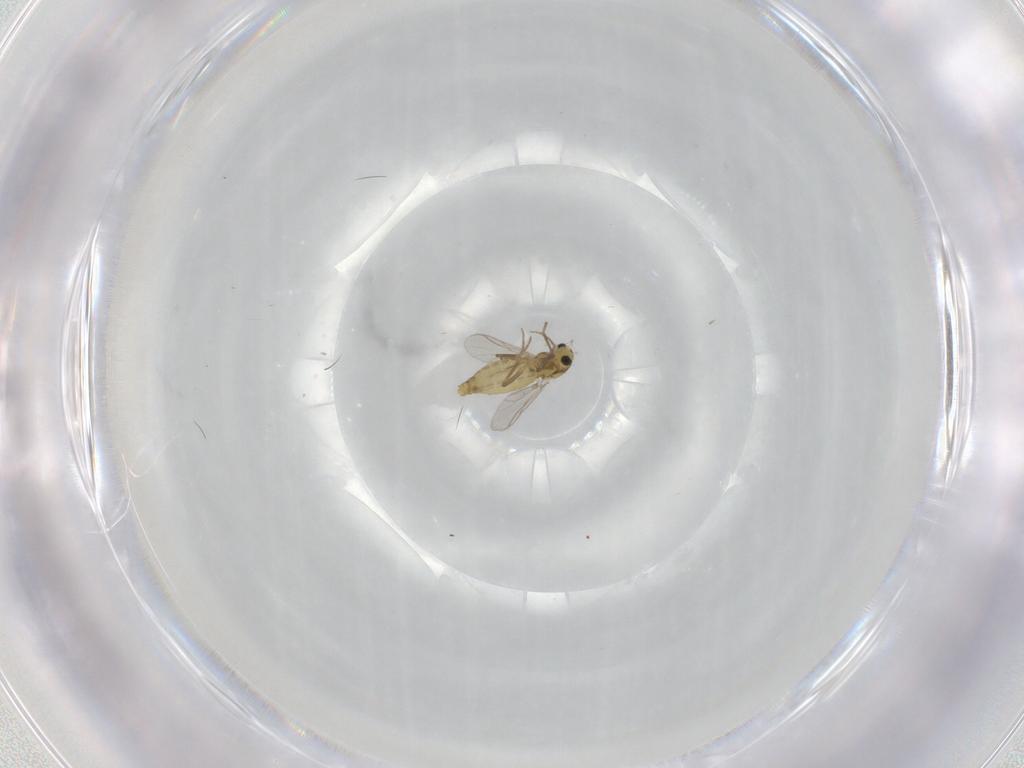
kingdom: Animalia
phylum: Arthropoda
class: Insecta
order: Diptera
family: Chironomidae
